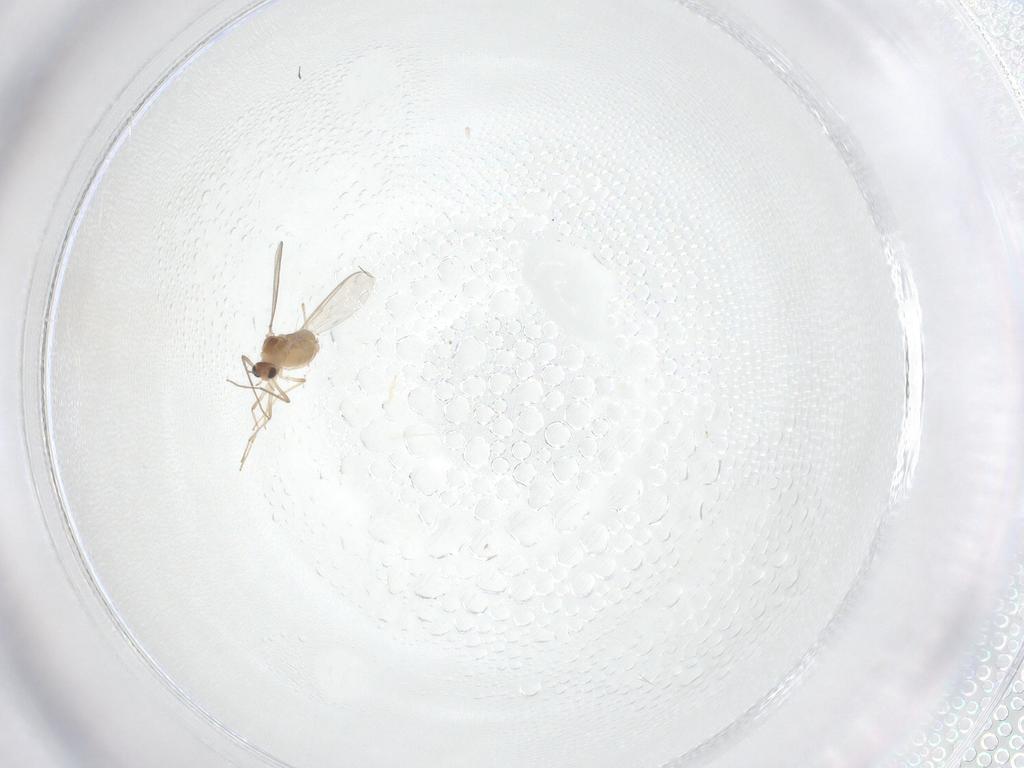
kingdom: Animalia
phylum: Arthropoda
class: Insecta
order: Diptera
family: Chironomidae
